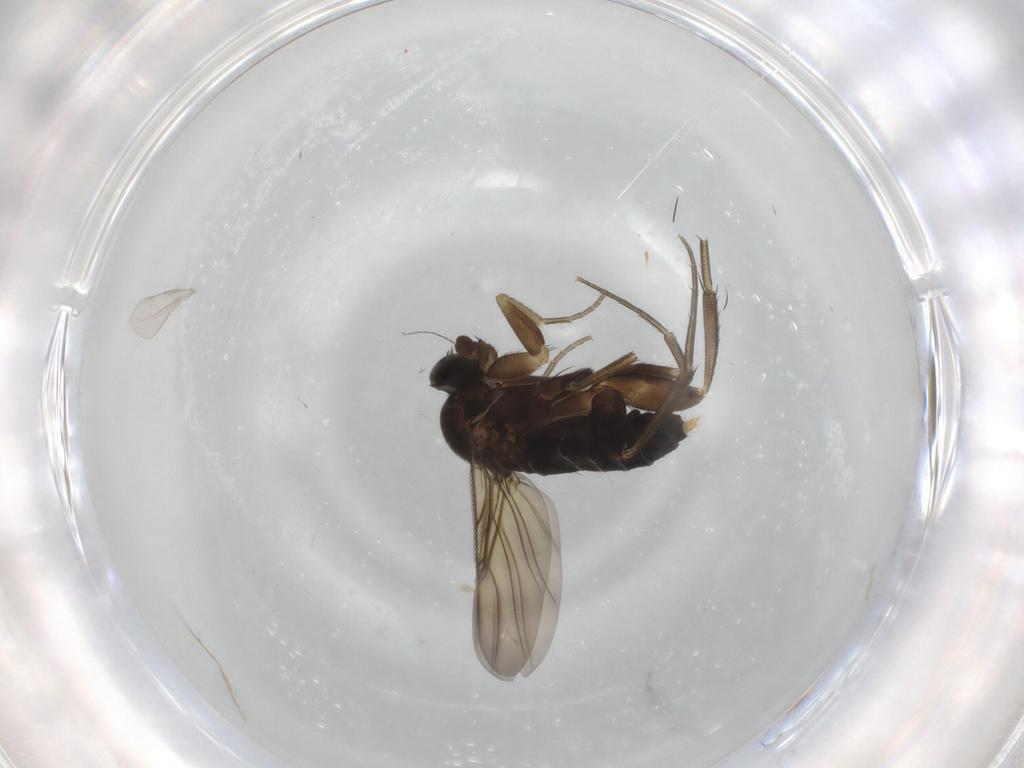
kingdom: Animalia
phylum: Arthropoda
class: Insecta
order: Diptera
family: Phoridae
